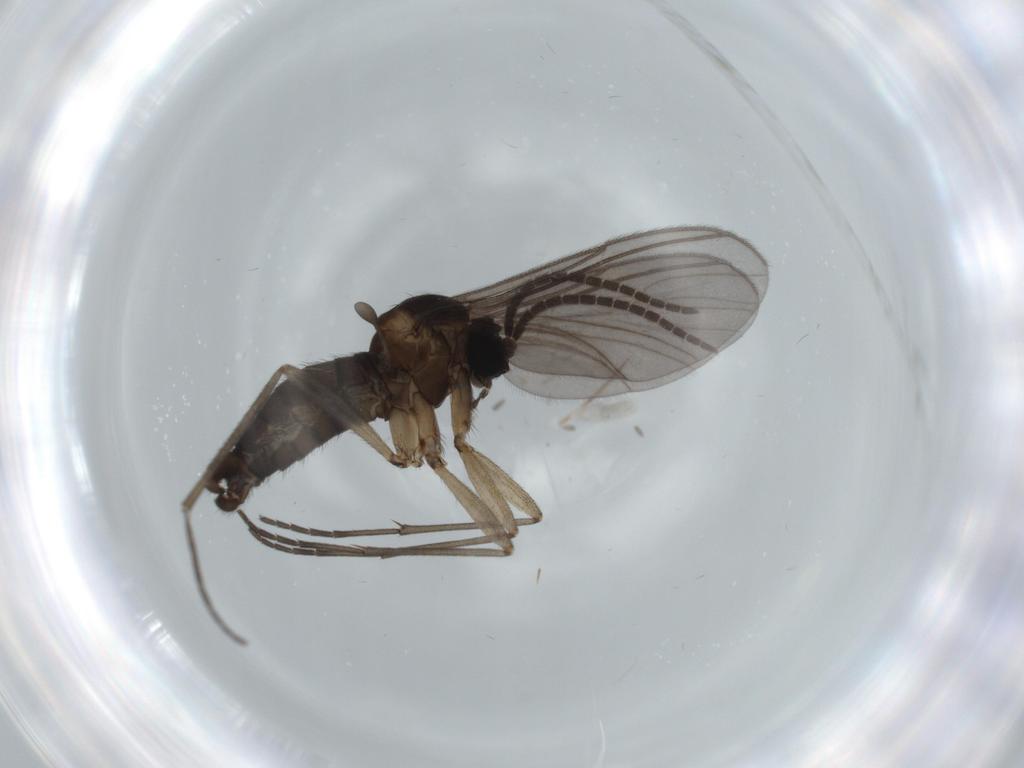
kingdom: Animalia
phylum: Arthropoda
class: Insecta
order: Diptera
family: Sciaridae
